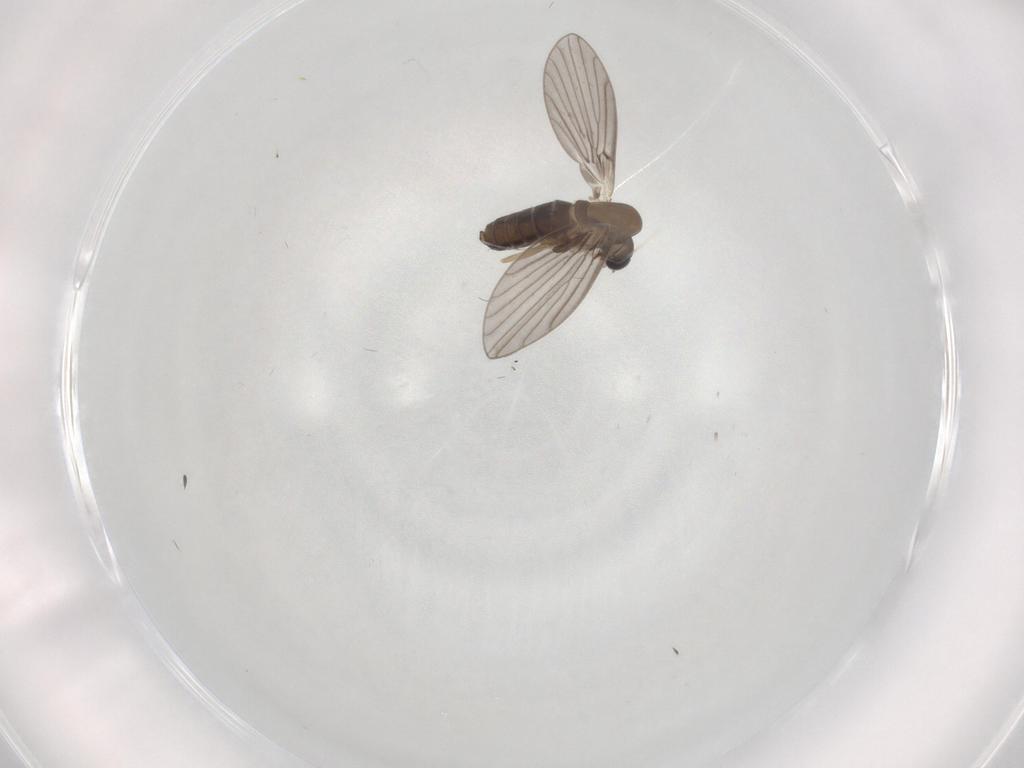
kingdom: Animalia
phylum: Arthropoda
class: Insecta
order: Diptera
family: Psychodidae
